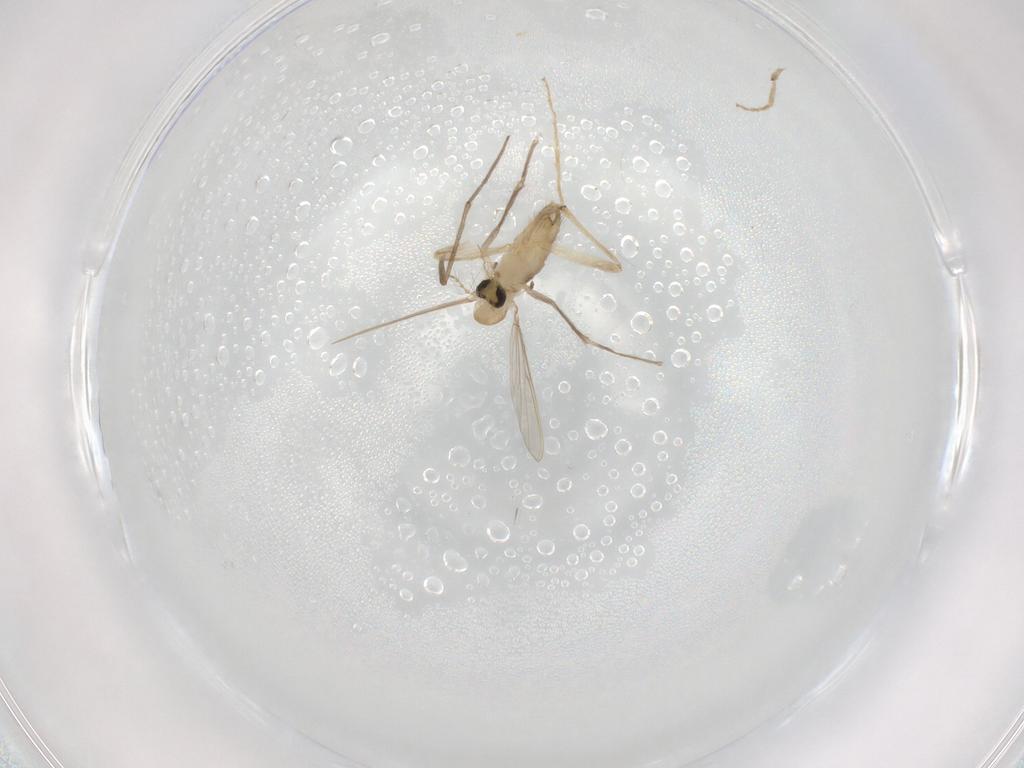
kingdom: Animalia
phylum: Arthropoda
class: Insecta
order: Diptera
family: Chironomidae
